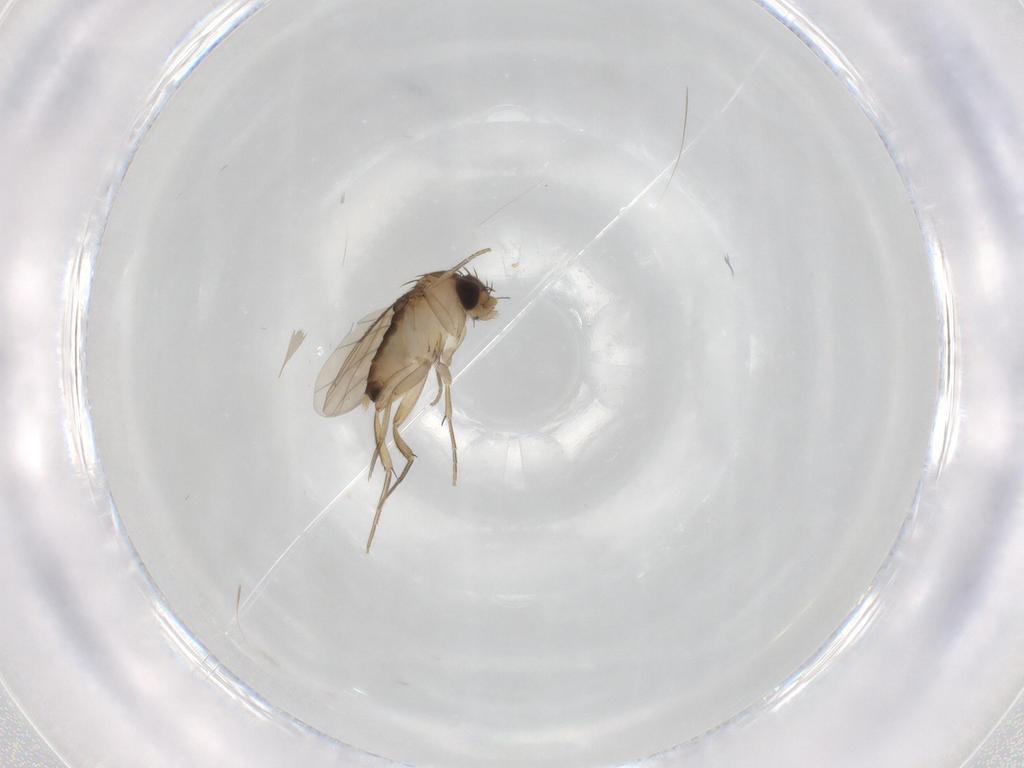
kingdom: Animalia
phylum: Arthropoda
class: Insecta
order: Diptera
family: Phoridae
